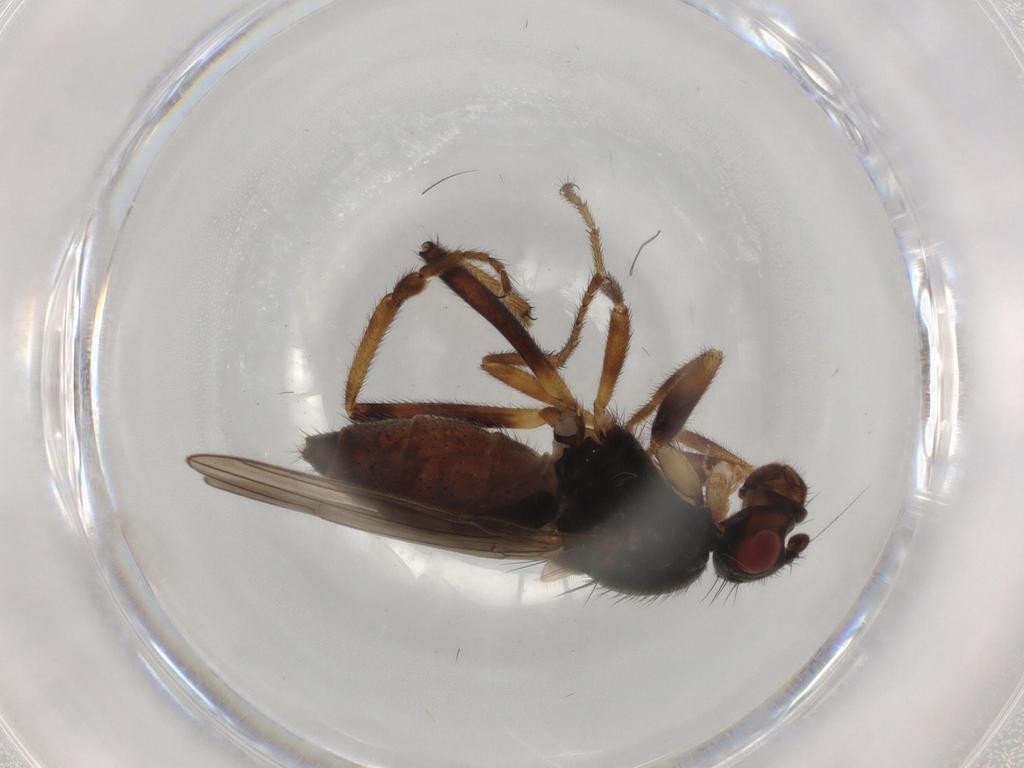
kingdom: Animalia
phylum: Arthropoda
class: Insecta
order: Diptera
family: Sphaeroceridae
